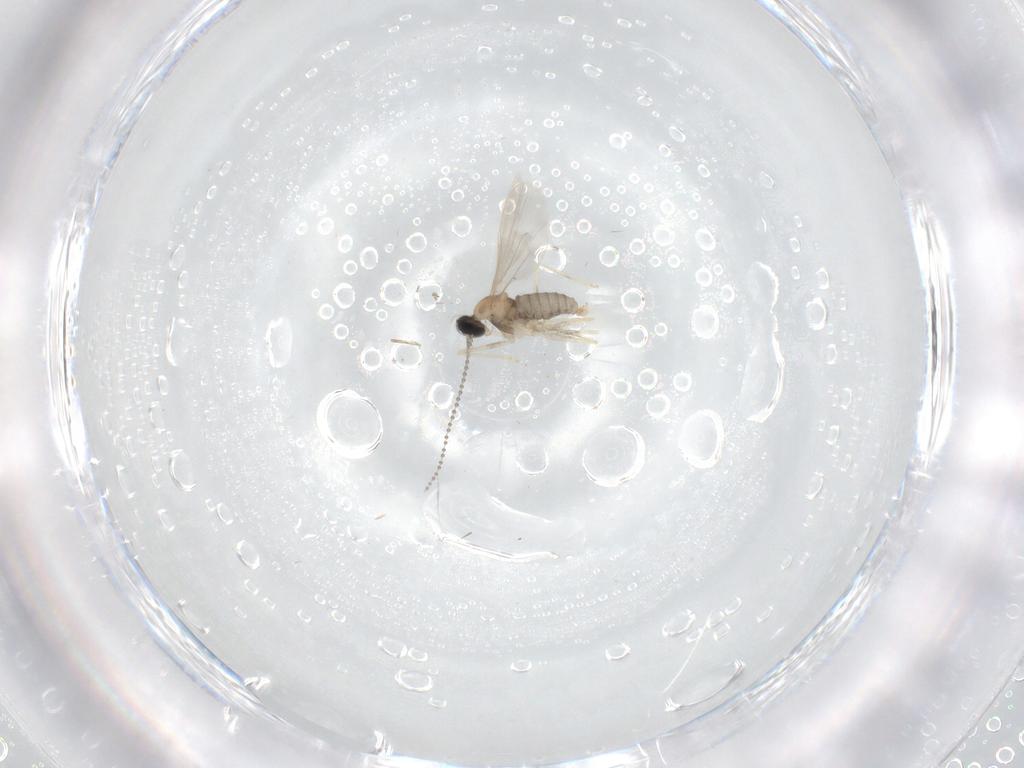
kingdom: Animalia
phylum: Arthropoda
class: Insecta
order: Diptera
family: Cecidomyiidae
